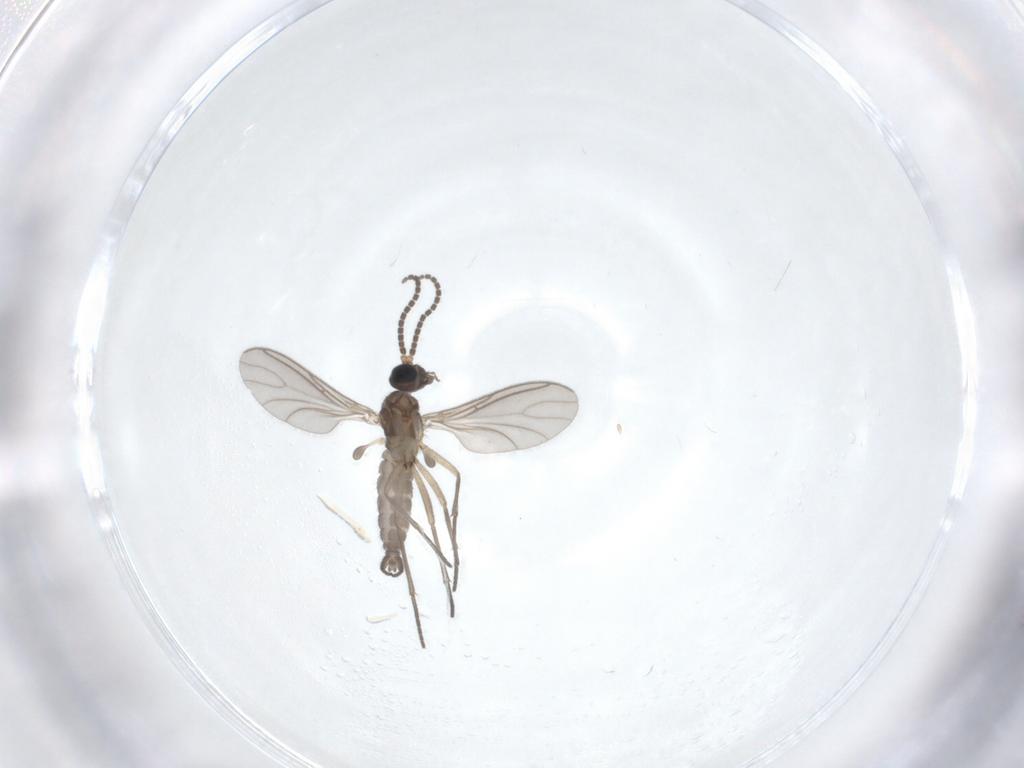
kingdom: Animalia
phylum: Arthropoda
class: Insecta
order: Diptera
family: Sciaridae
